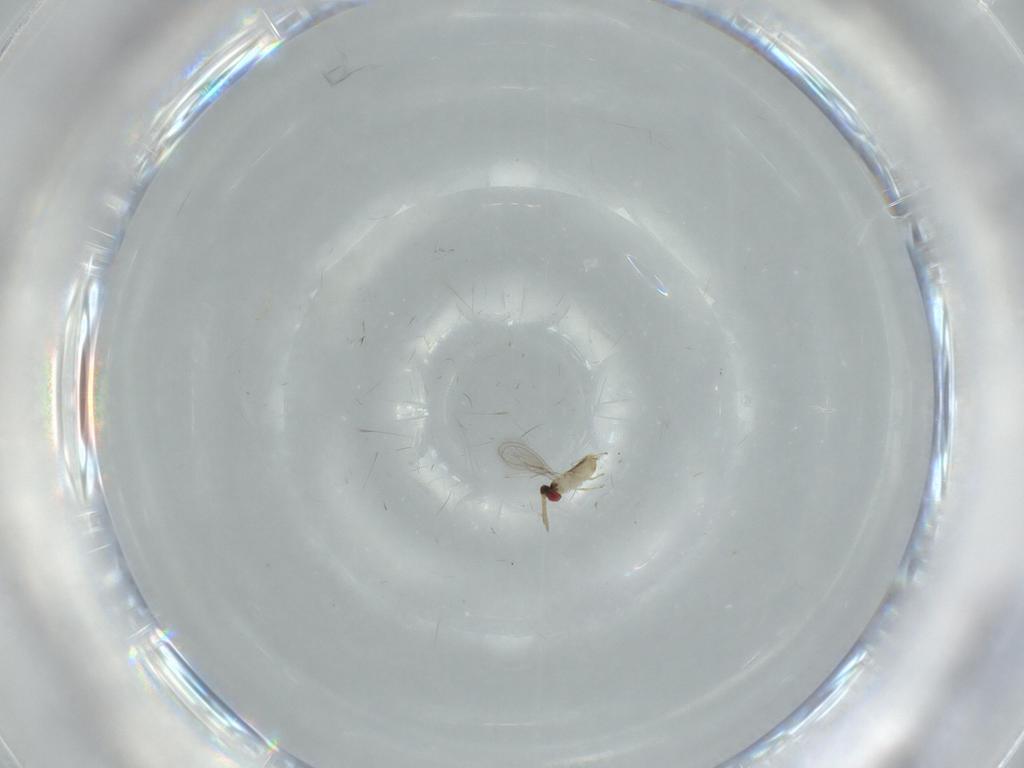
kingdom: Animalia
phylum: Arthropoda
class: Insecta
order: Hymenoptera
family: Aphelinidae
